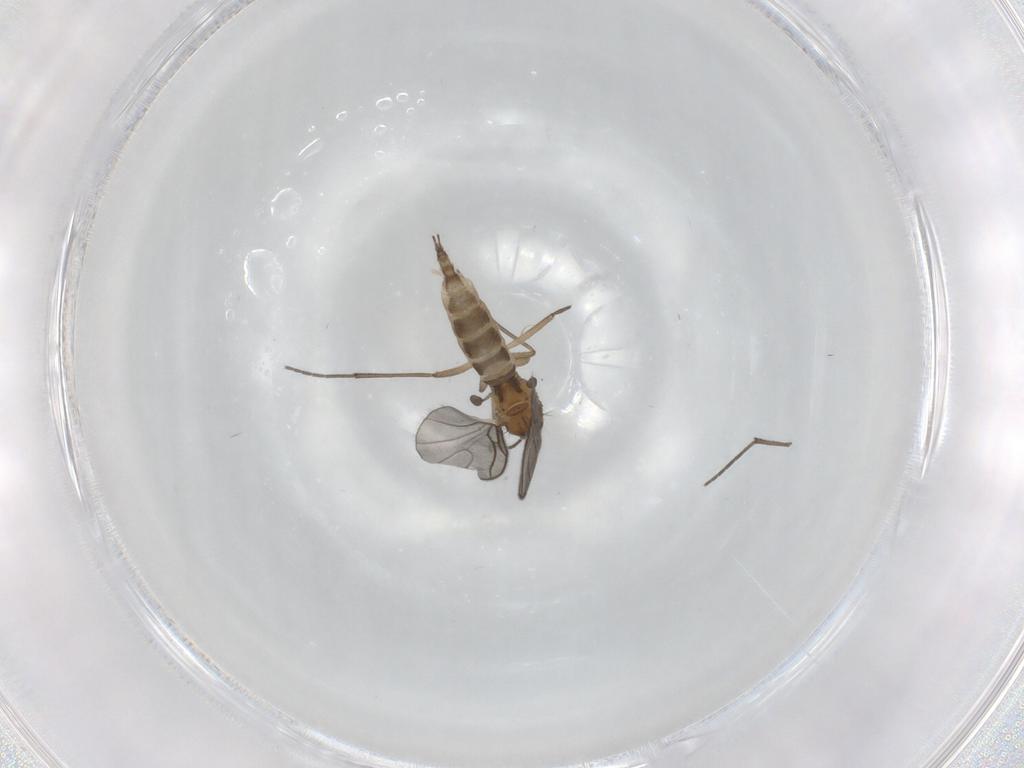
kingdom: Animalia
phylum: Arthropoda
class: Insecta
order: Diptera
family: Sciaridae
